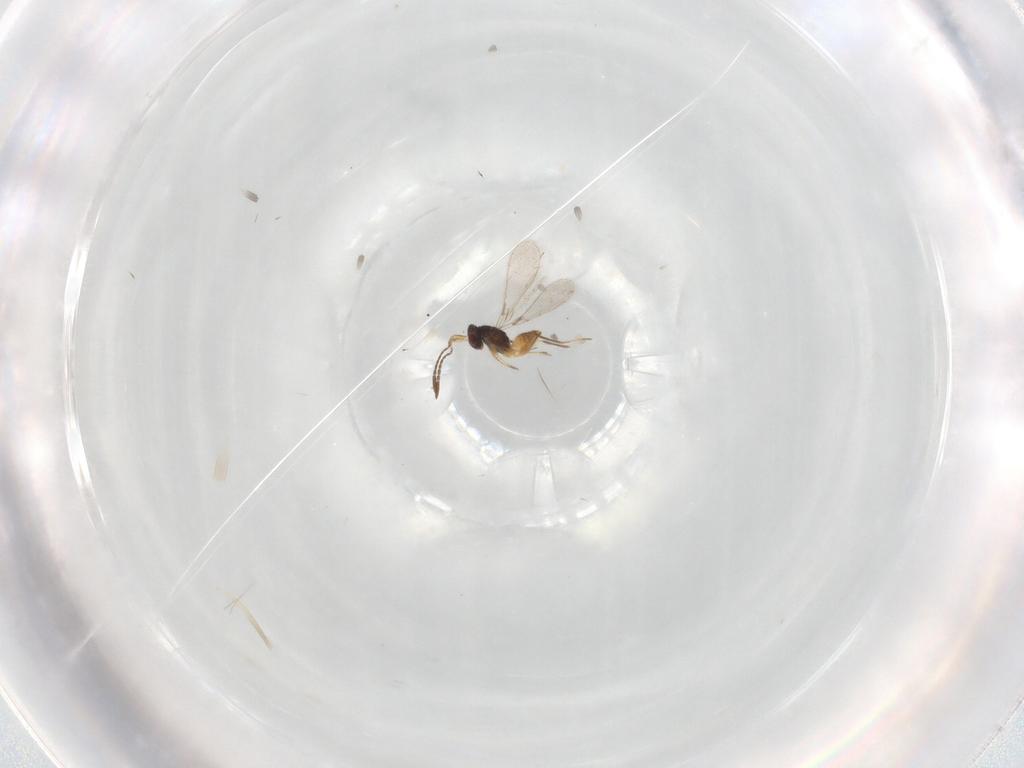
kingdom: Animalia
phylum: Arthropoda
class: Insecta
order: Hymenoptera
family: Mymaridae
